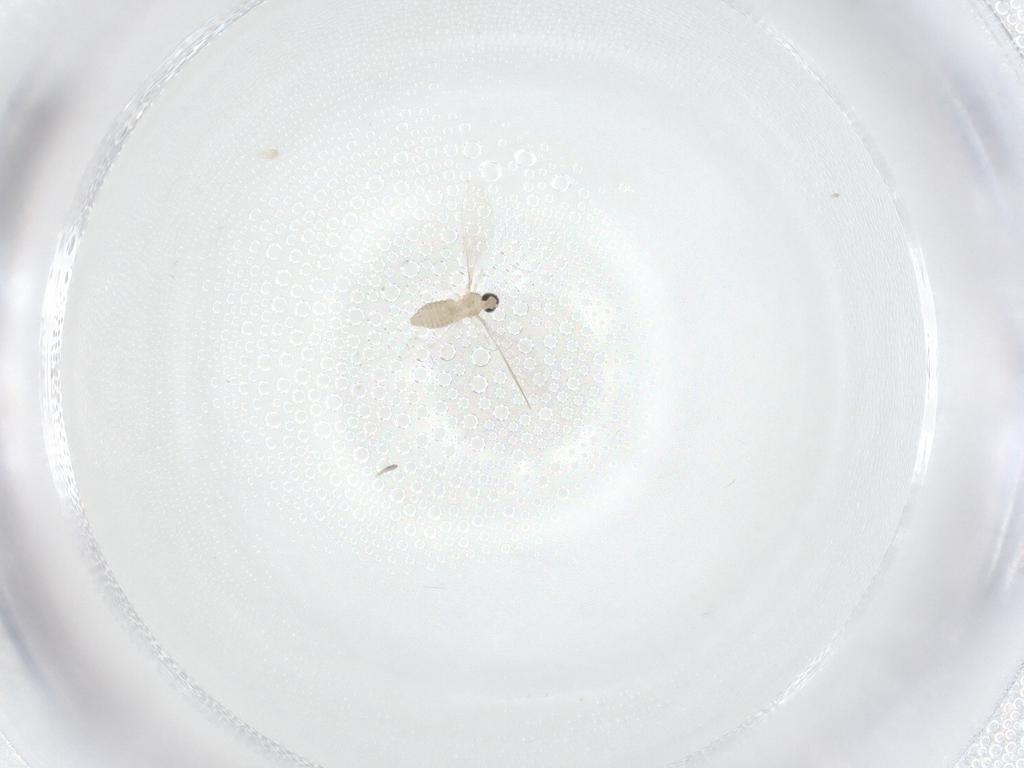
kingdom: Animalia
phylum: Arthropoda
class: Insecta
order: Diptera
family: Cecidomyiidae
